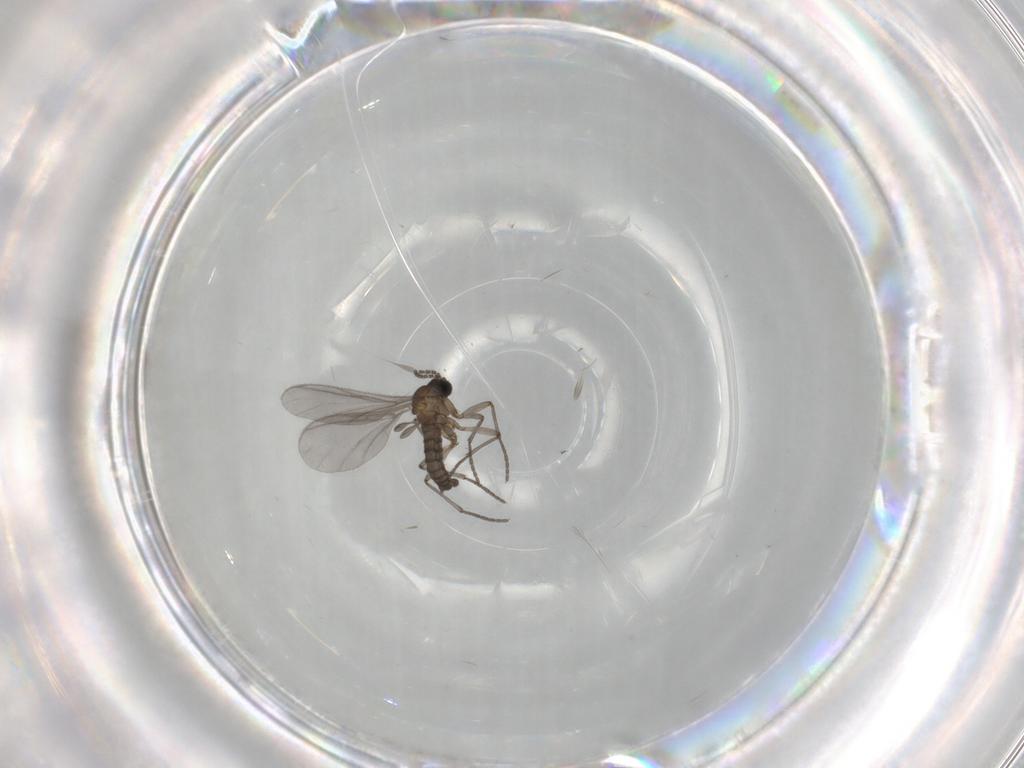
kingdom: Animalia
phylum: Arthropoda
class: Insecta
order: Diptera
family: Sciaridae
